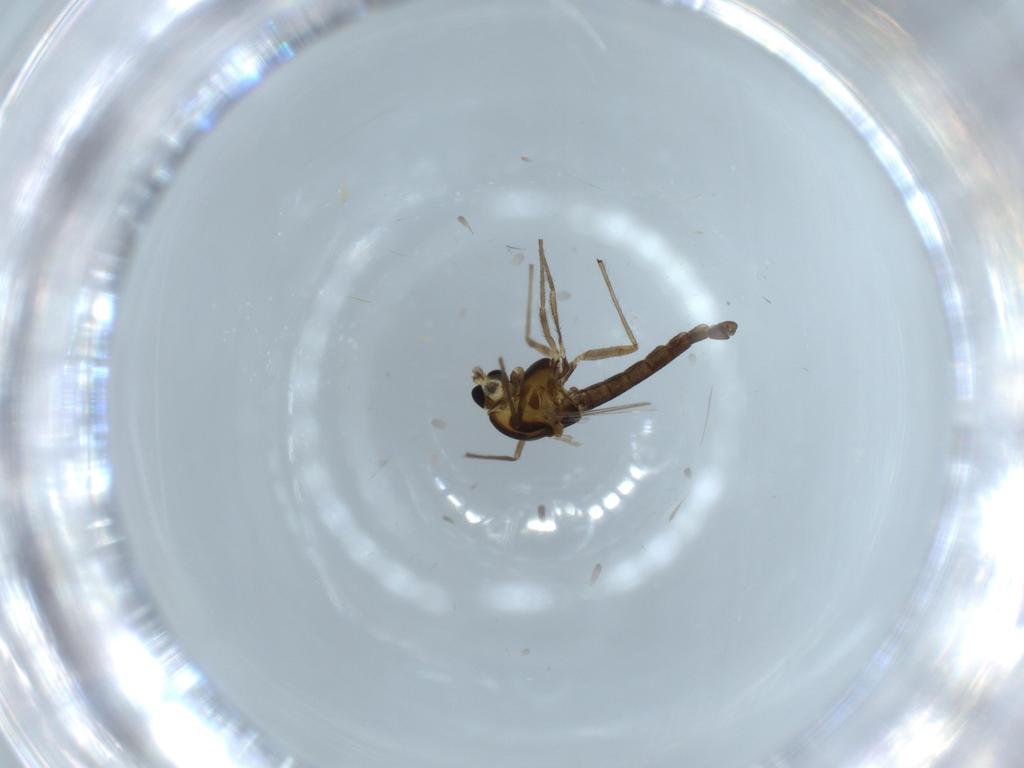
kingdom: Animalia
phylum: Arthropoda
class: Insecta
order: Diptera
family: Chironomidae
